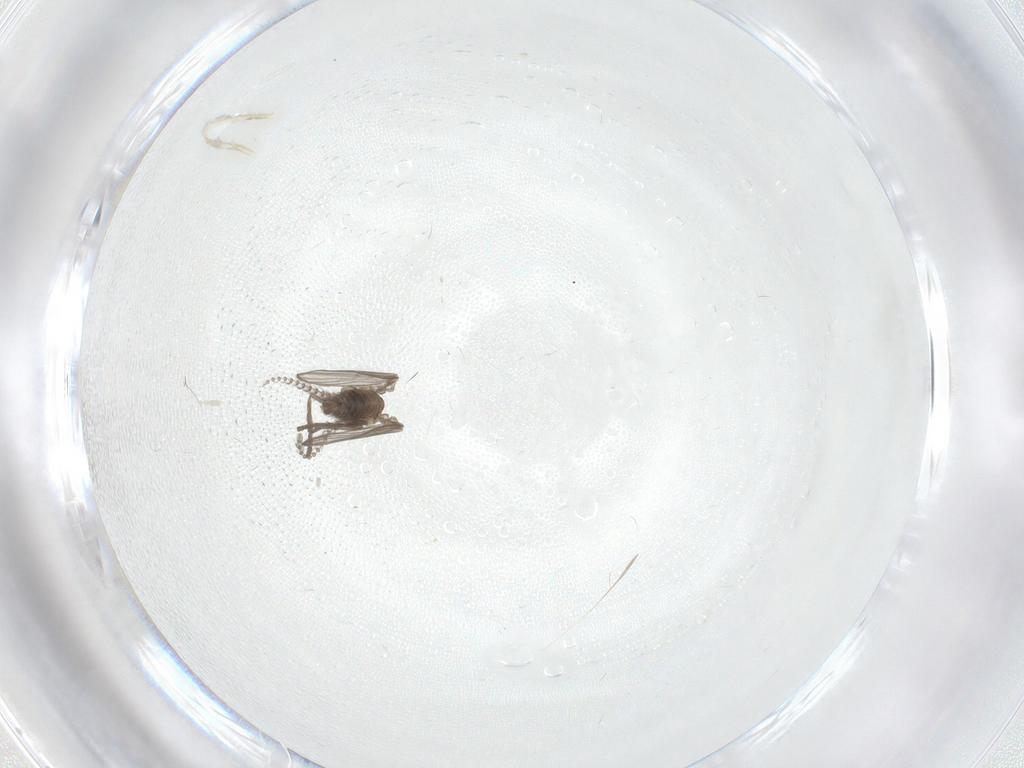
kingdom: Animalia
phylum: Arthropoda
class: Insecta
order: Diptera
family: Psychodidae
